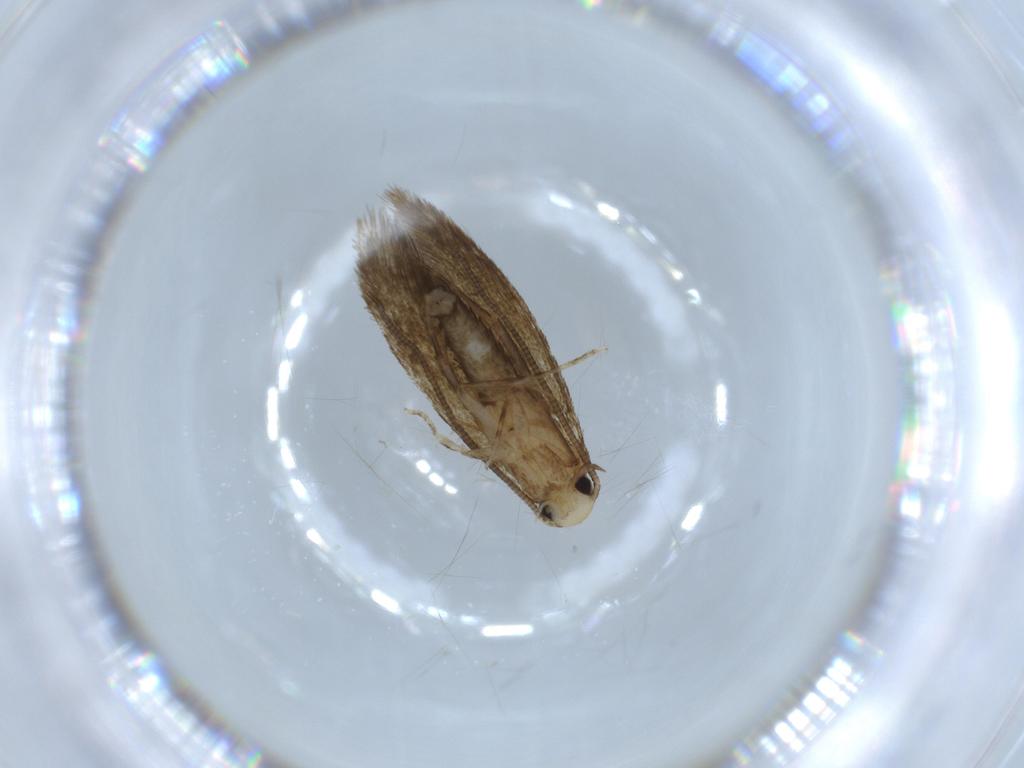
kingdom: Animalia
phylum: Arthropoda
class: Insecta
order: Lepidoptera
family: Tineidae
